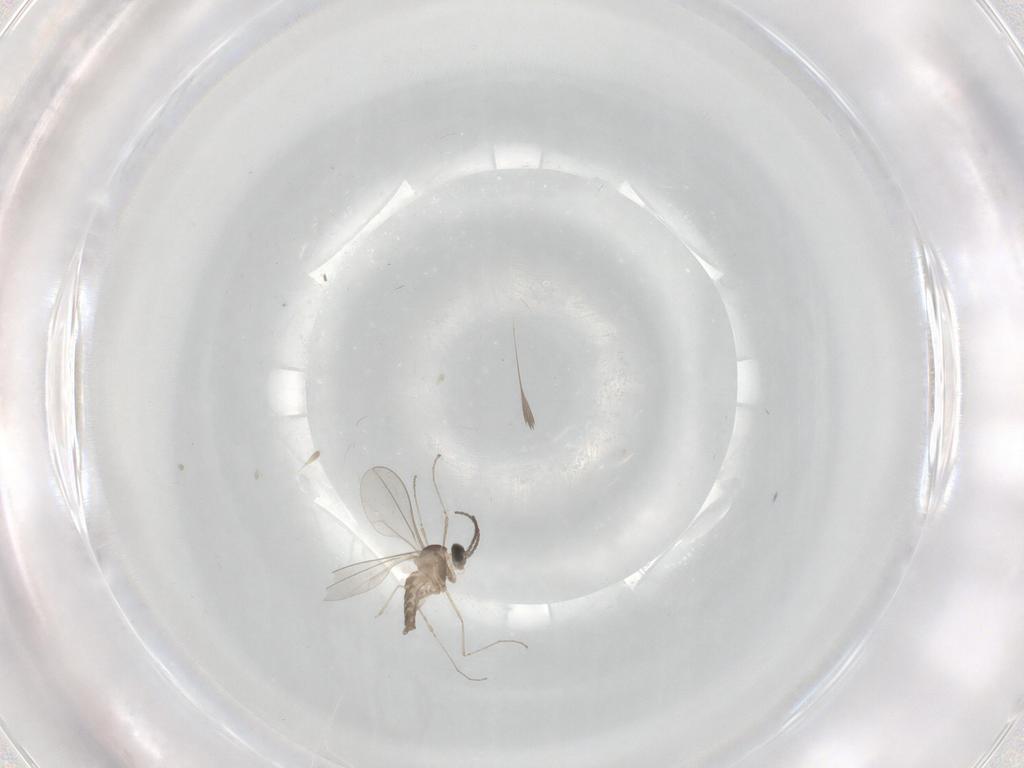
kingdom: Animalia
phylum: Arthropoda
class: Insecta
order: Diptera
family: Cecidomyiidae
